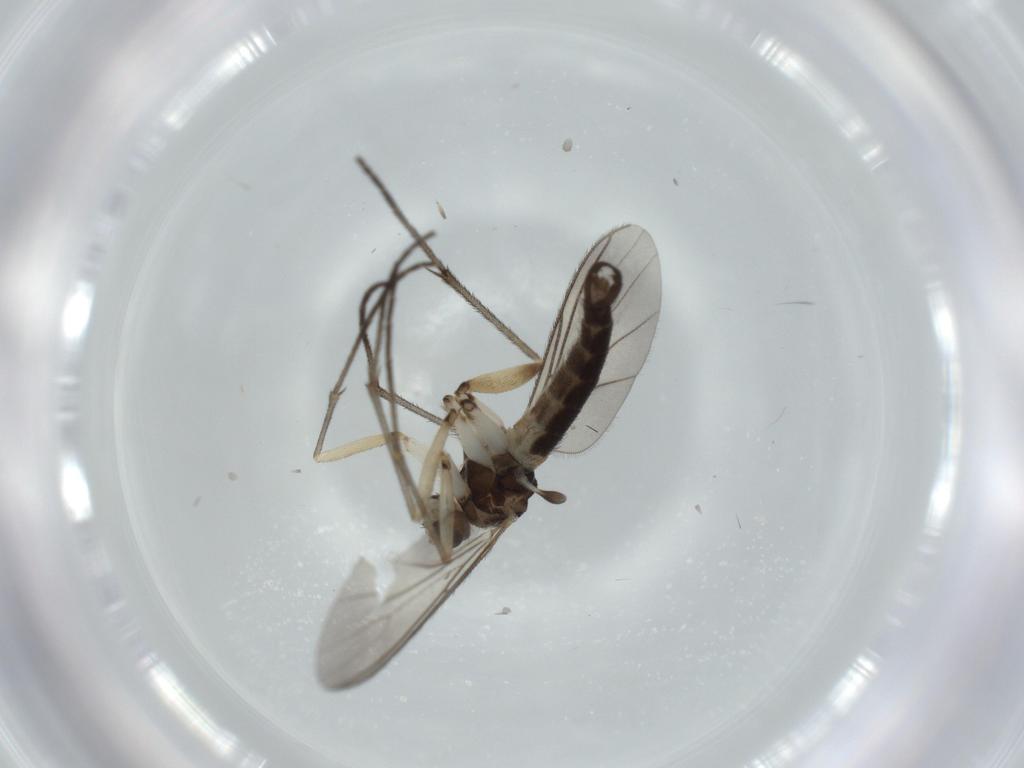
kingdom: Animalia
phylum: Arthropoda
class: Insecta
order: Diptera
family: Sciaridae
